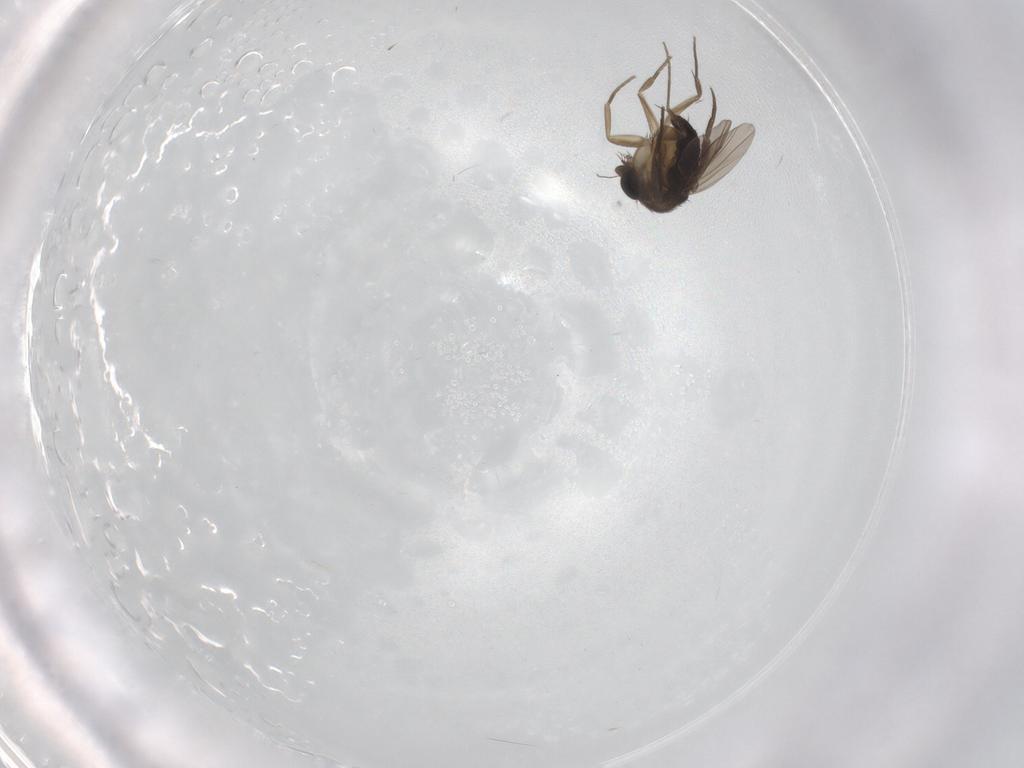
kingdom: Animalia
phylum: Arthropoda
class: Insecta
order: Diptera
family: Phoridae
